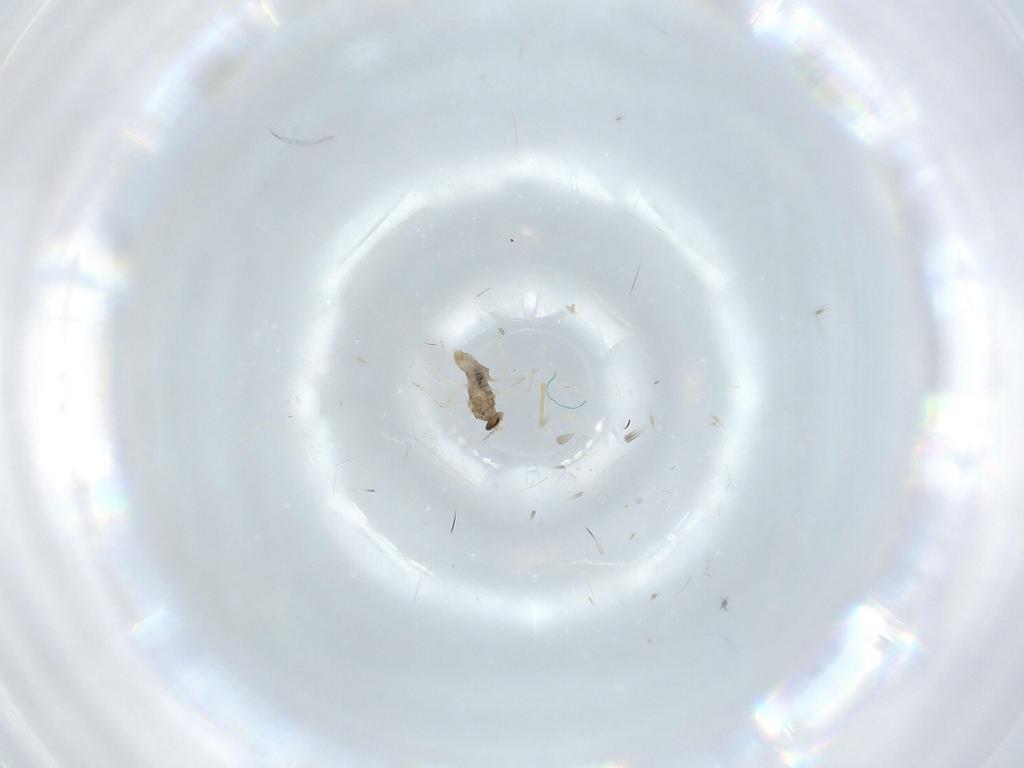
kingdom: Animalia
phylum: Arthropoda
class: Insecta
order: Diptera
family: Cecidomyiidae
